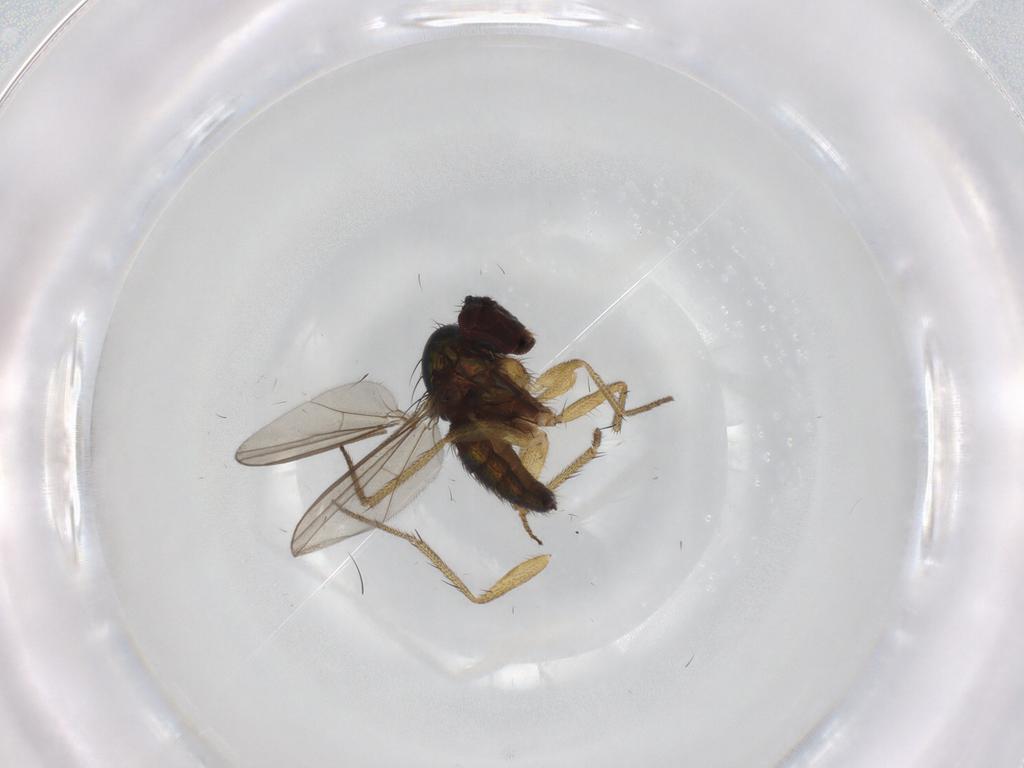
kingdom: Animalia
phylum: Arthropoda
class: Insecta
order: Diptera
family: Dolichopodidae
